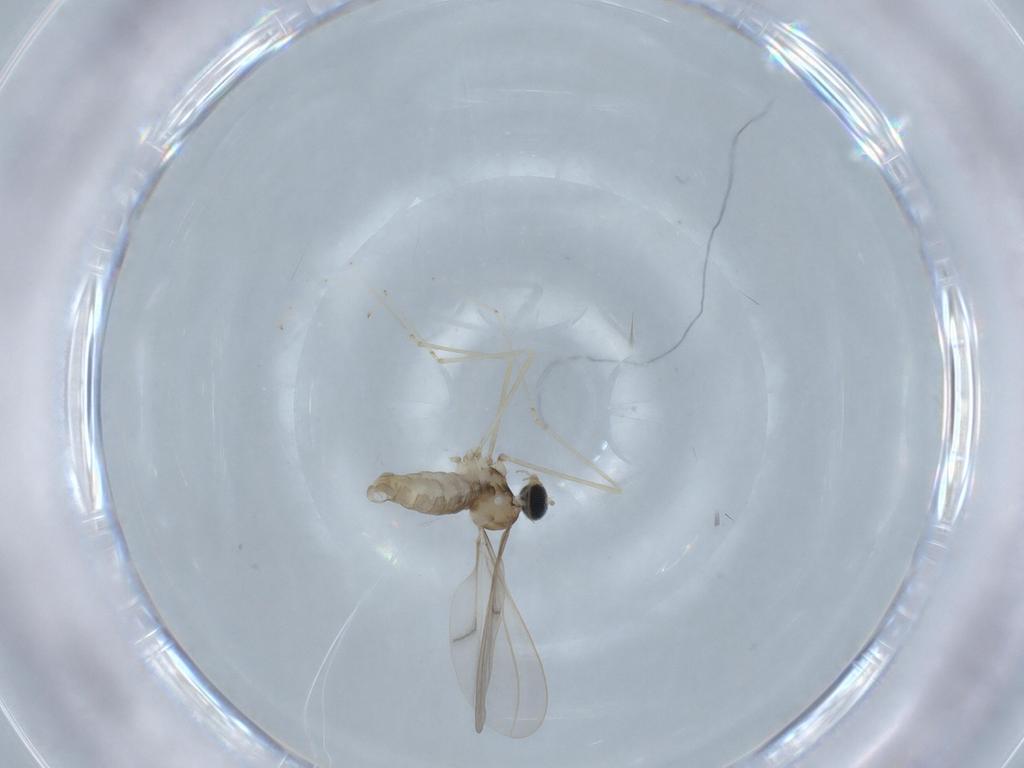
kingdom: Animalia
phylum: Arthropoda
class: Insecta
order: Diptera
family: Cecidomyiidae
